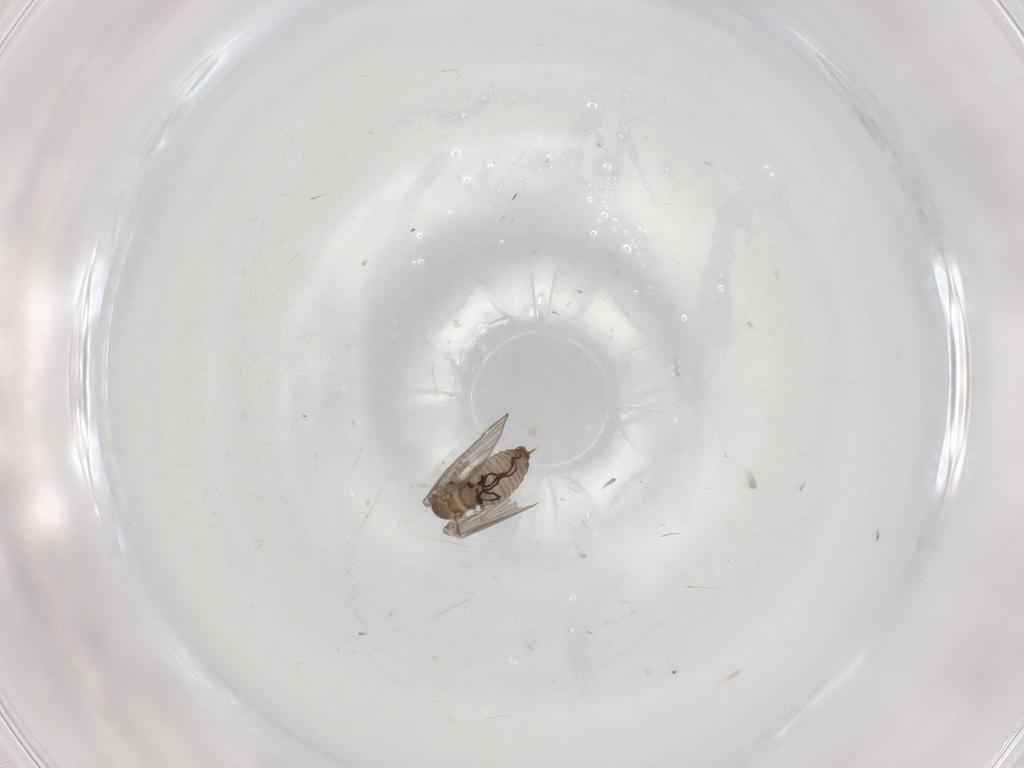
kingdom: Animalia
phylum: Arthropoda
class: Insecta
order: Diptera
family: Psychodidae
